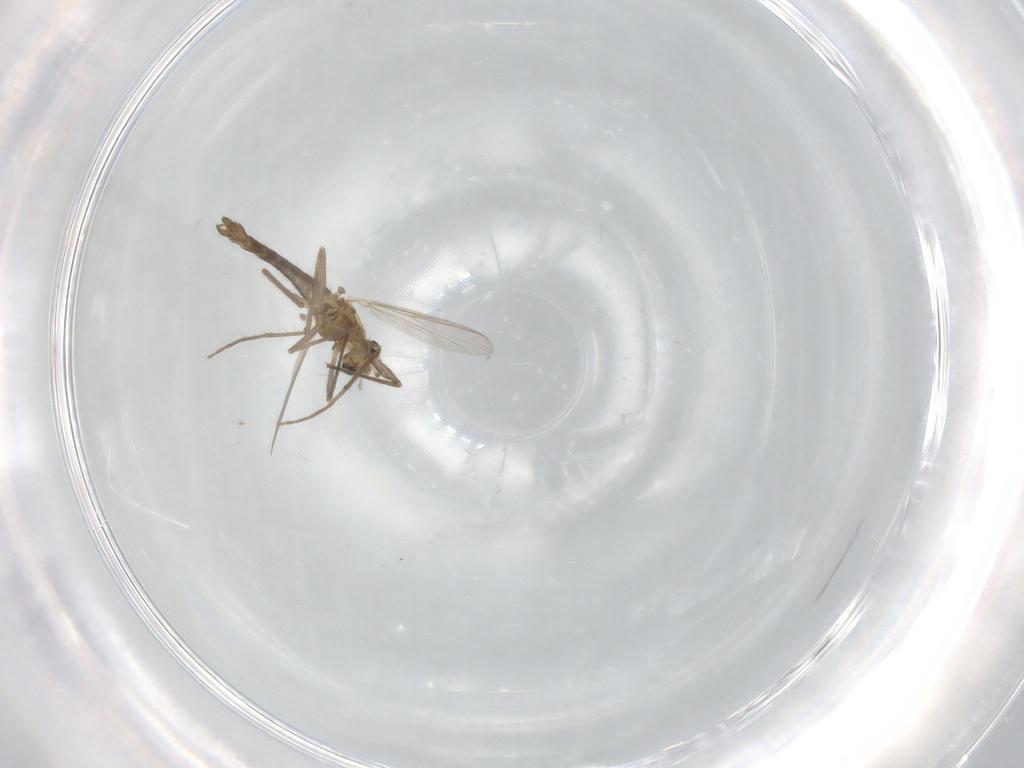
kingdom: Animalia
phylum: Arthropoda
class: Insecta
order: Diptera
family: Chironomidae
